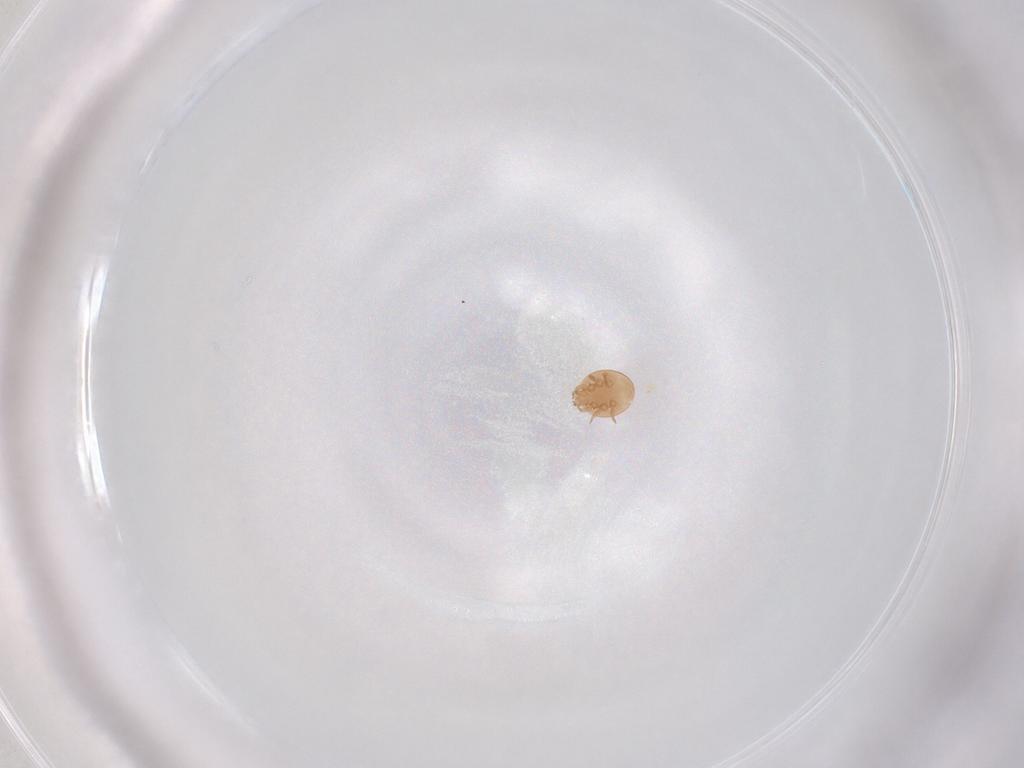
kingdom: Animalia
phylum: Arthropoda
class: Arachnida
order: Mesostigmata
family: Trematuridae
